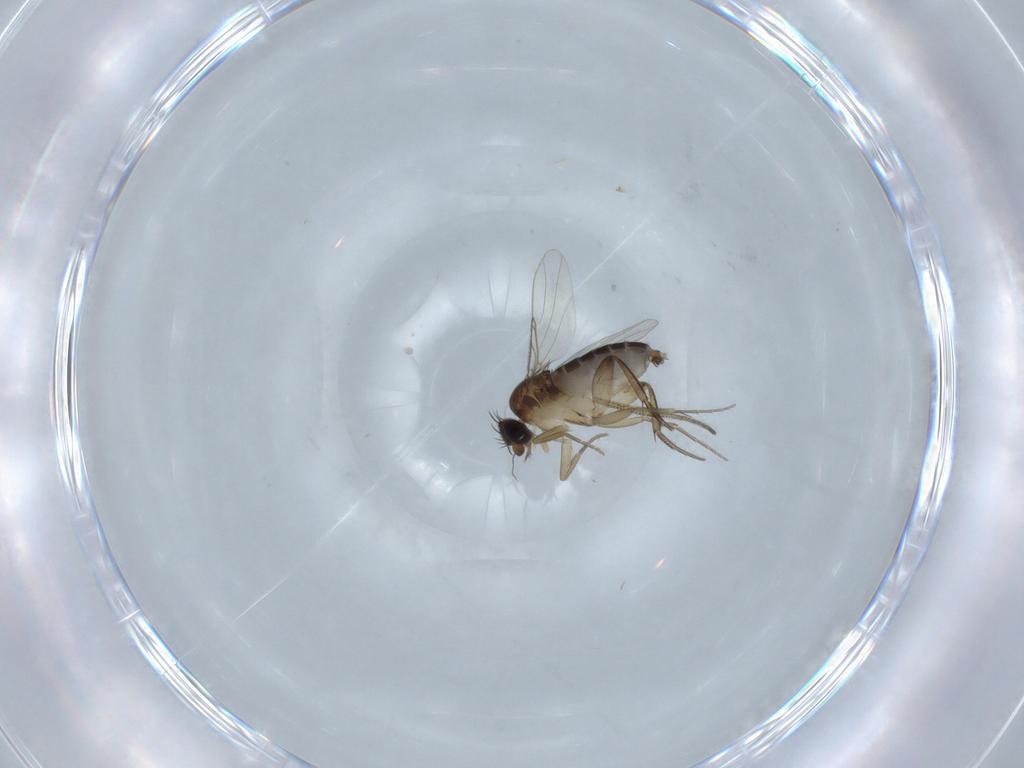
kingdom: Animalia
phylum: Arthropoda
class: Insecta
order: Diptera
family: Phoridae
